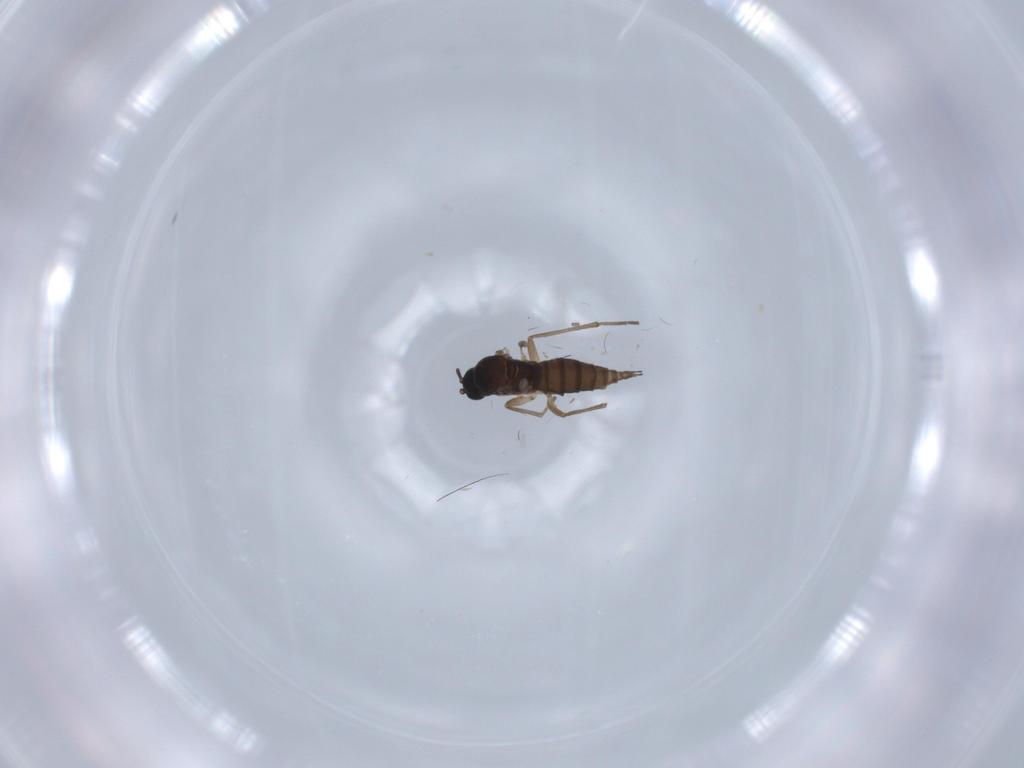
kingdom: Animalia
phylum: Arthropoda
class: Insecta
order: Diptera
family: Sciaridae
